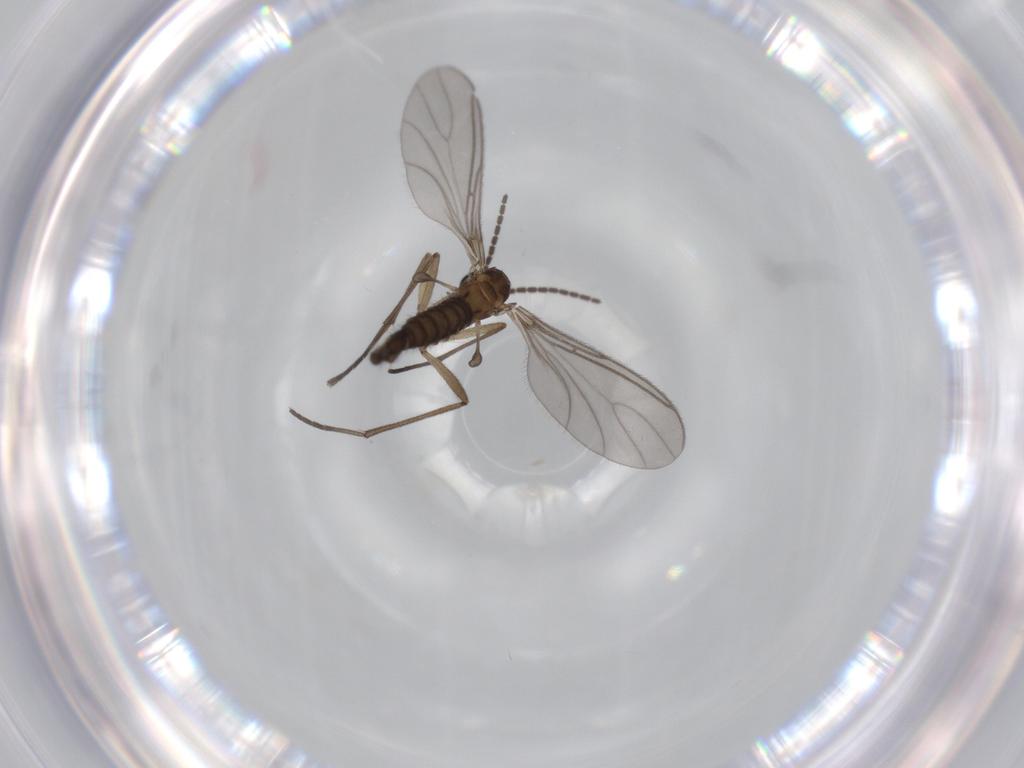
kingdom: Animalia
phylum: Arthropoda
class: Insecta
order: Diptera
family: Sciaridae
